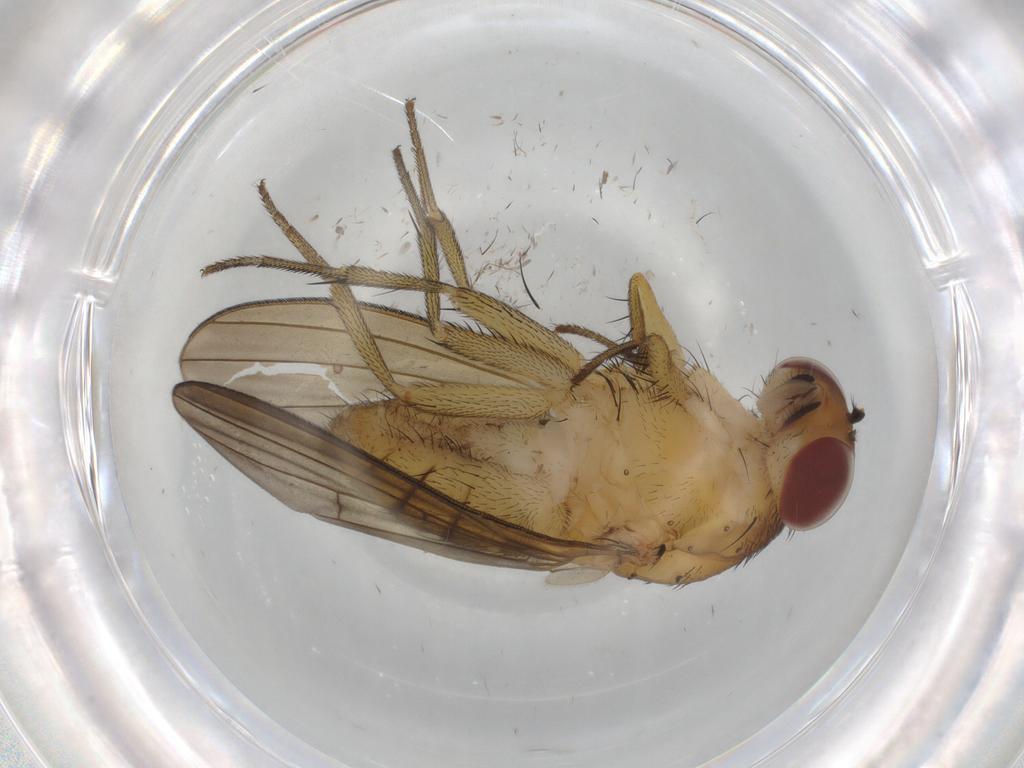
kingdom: Animalia
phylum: Arthropoda
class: Insecta
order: Diptera
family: Ceratopogonidae
